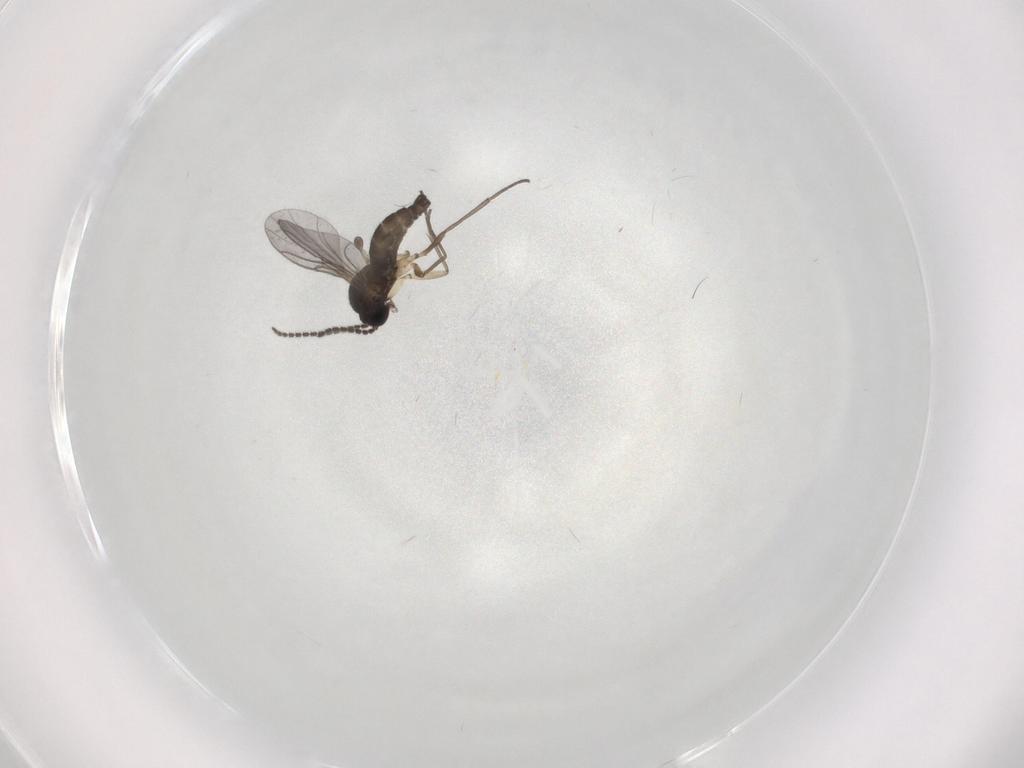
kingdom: Animalia
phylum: Arthropoda
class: Insecta
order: Diptera
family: Sciaridae
